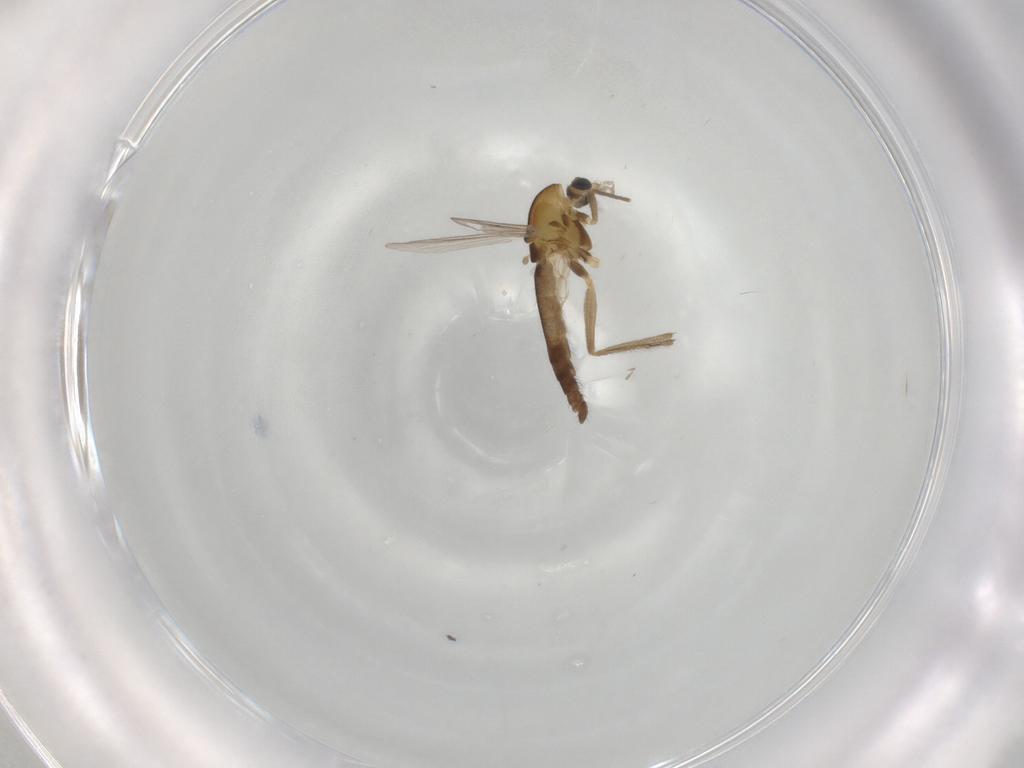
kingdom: Animalia
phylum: Arthropoda
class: Insecta
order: Diptera
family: Chironomidae
